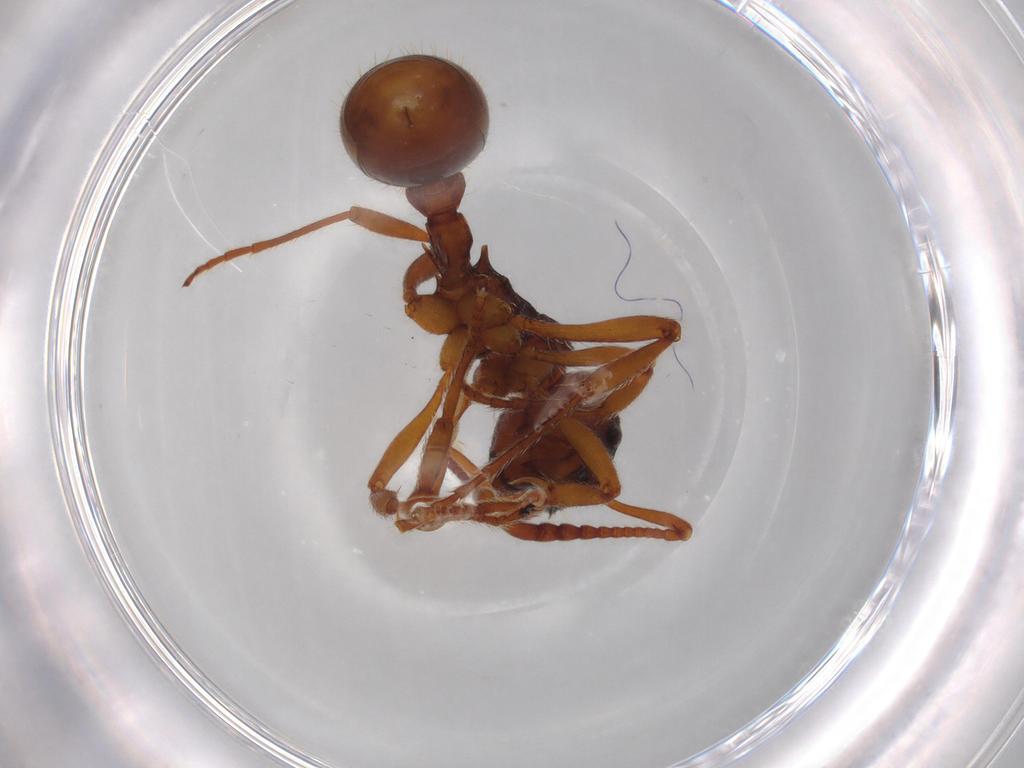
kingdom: Animalia
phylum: Arthropoda
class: Insecta
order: Hymenoptera
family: Formicidae
